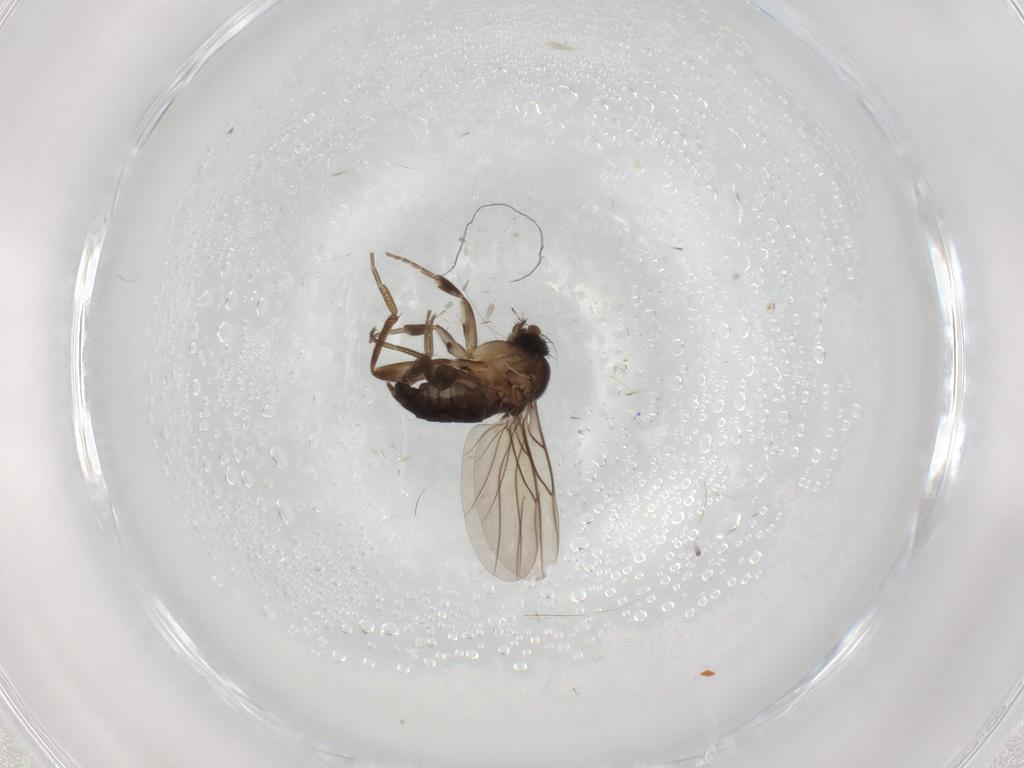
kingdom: Animalia
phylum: Arthropoda
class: Insecta
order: Diptera
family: Phoridae
